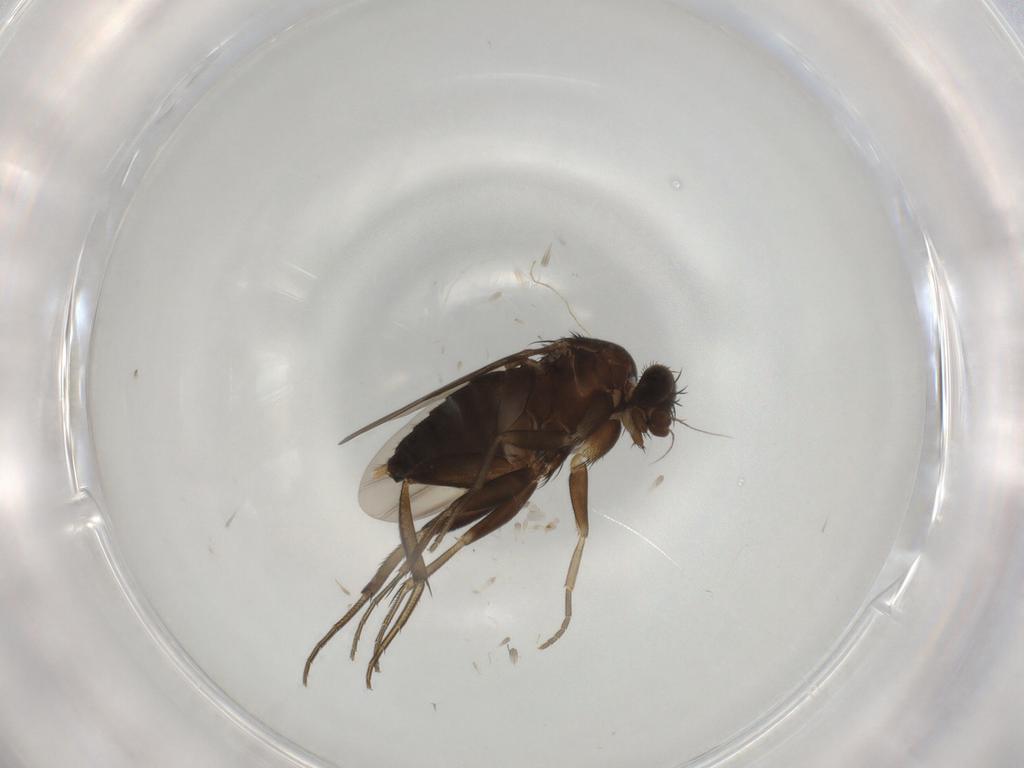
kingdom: Animalia
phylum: Arthropoda
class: Insecta
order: Diptera
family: Phoridae
